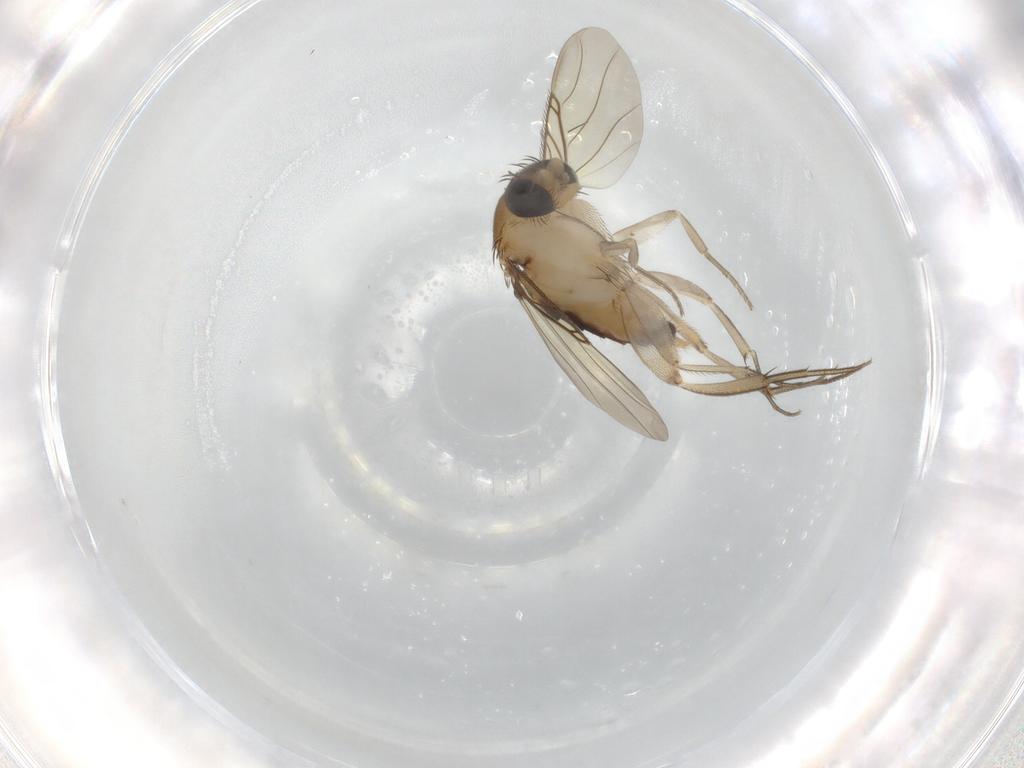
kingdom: Animalia
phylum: Arthropoda
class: Insecta
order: Diptera
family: Phoridae
